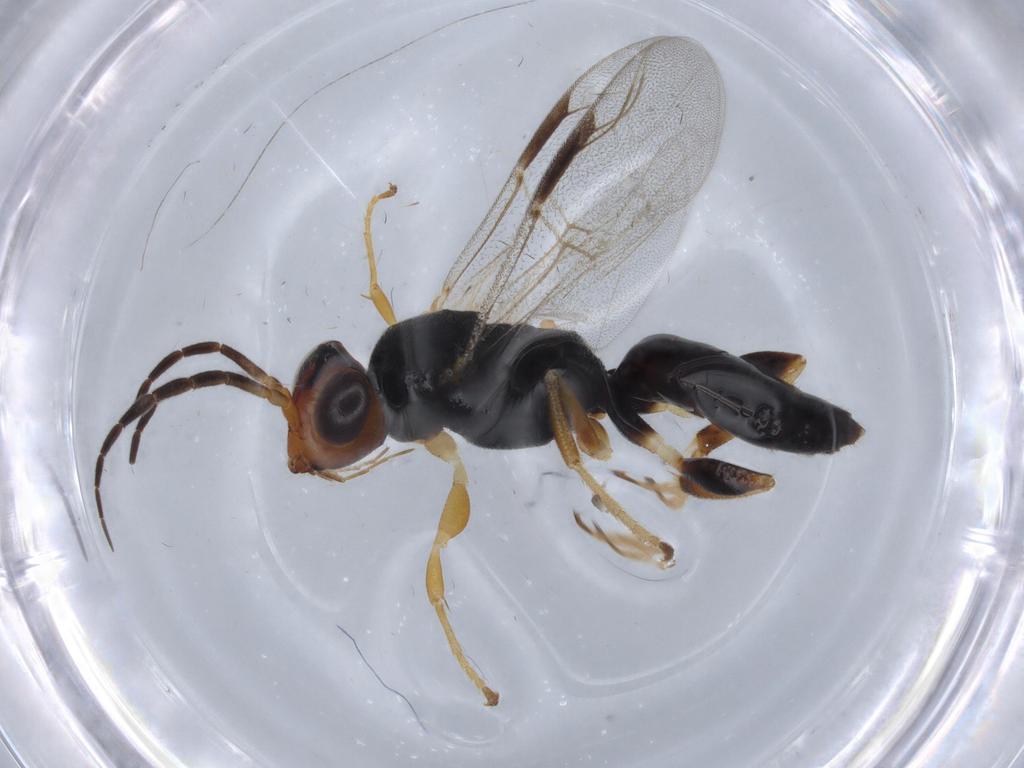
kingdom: Animalia
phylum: Arthropoda
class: Insecta
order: Hymenoptera
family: Dryinidae
